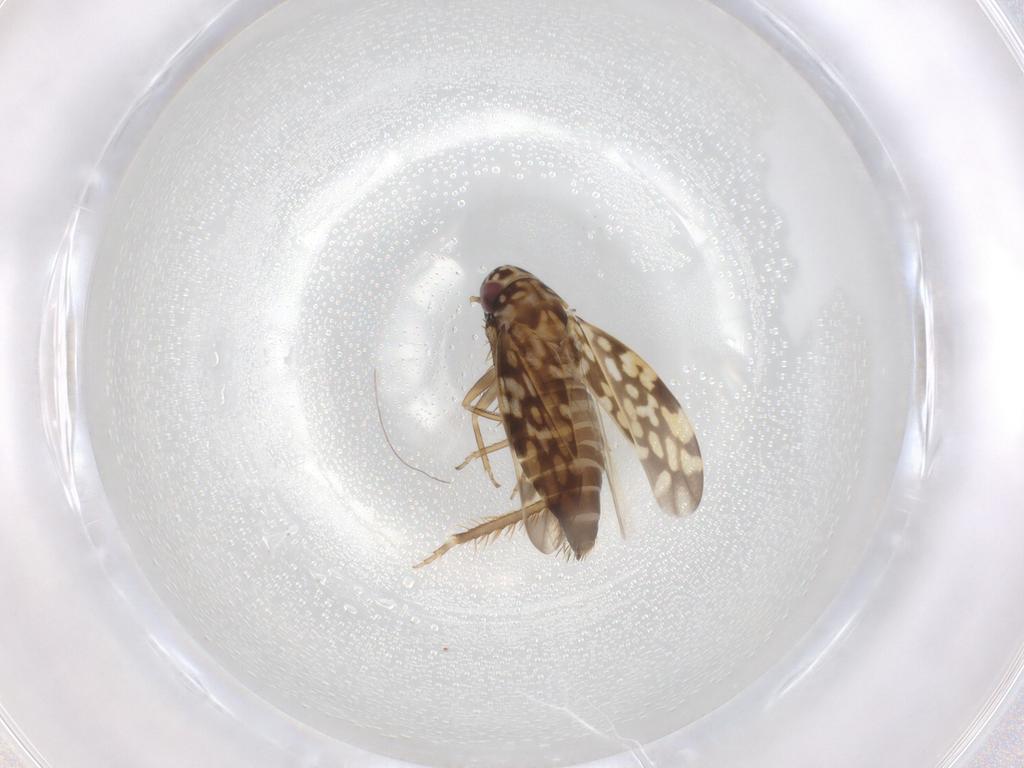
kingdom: Animalia
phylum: Arthropoda
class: Insecta
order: Hemiptera
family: Cicadellidae
